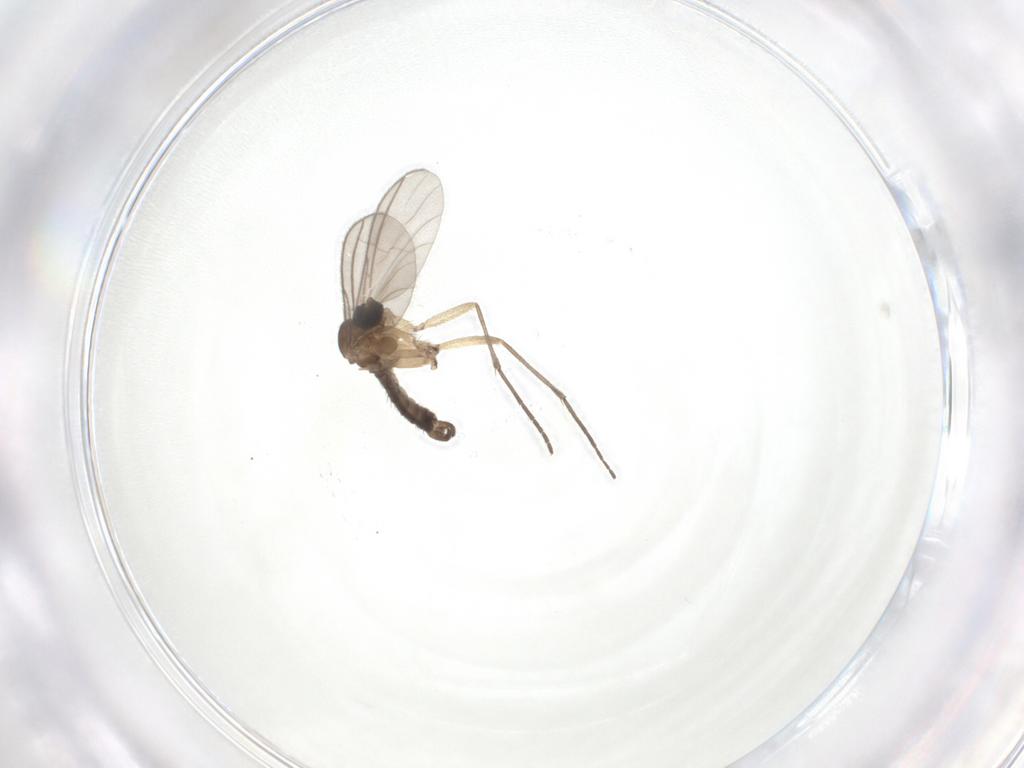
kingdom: Animalia
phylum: Arthropoda
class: Insecta
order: Diptera
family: Sciaridae
